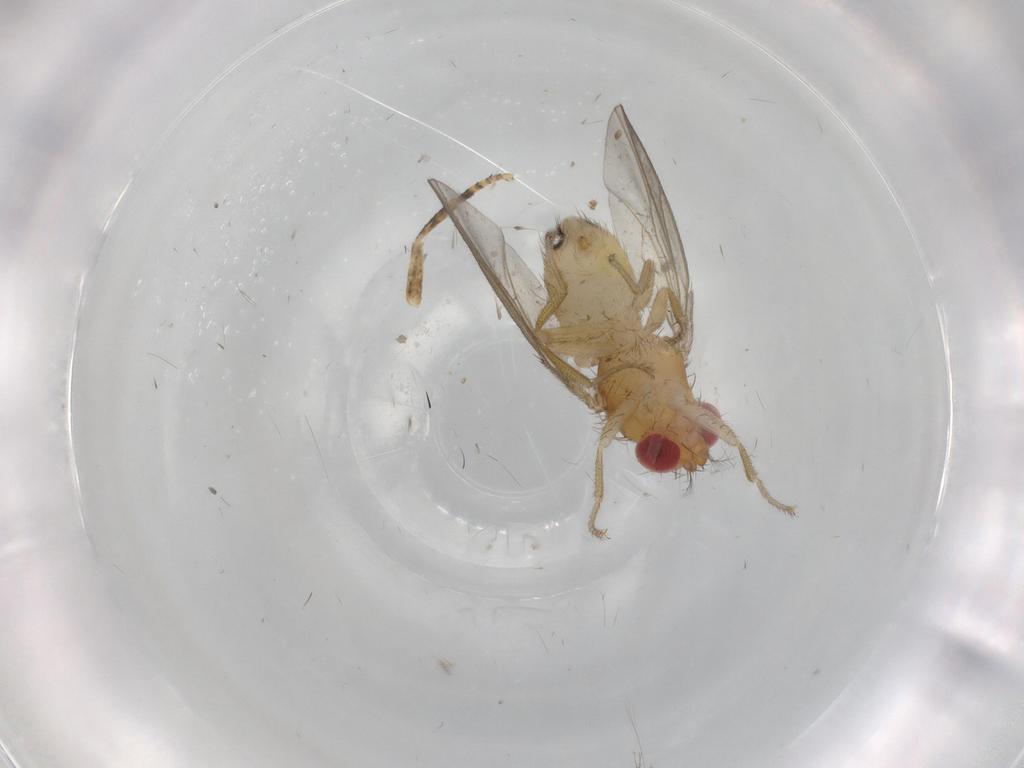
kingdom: Animalia
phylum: Arthropoda
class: Insecta
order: Diptera
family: Drosophilidae
